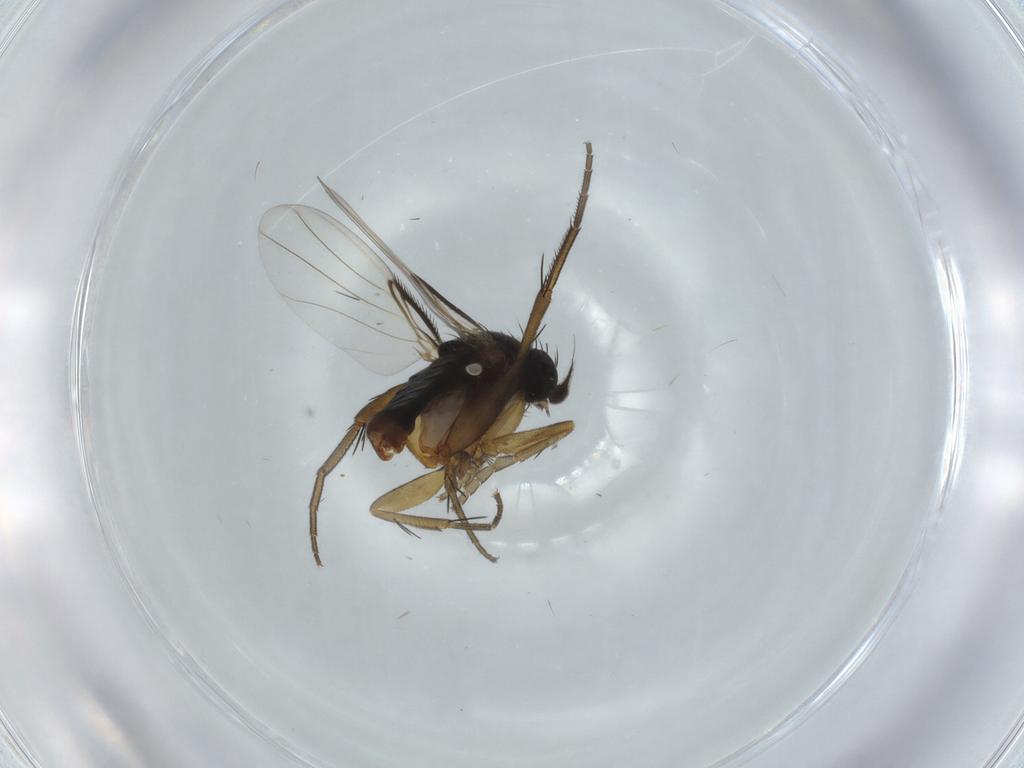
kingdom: Animalia
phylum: Arthropoda
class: Insecta
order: Diptera
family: Phoridae
